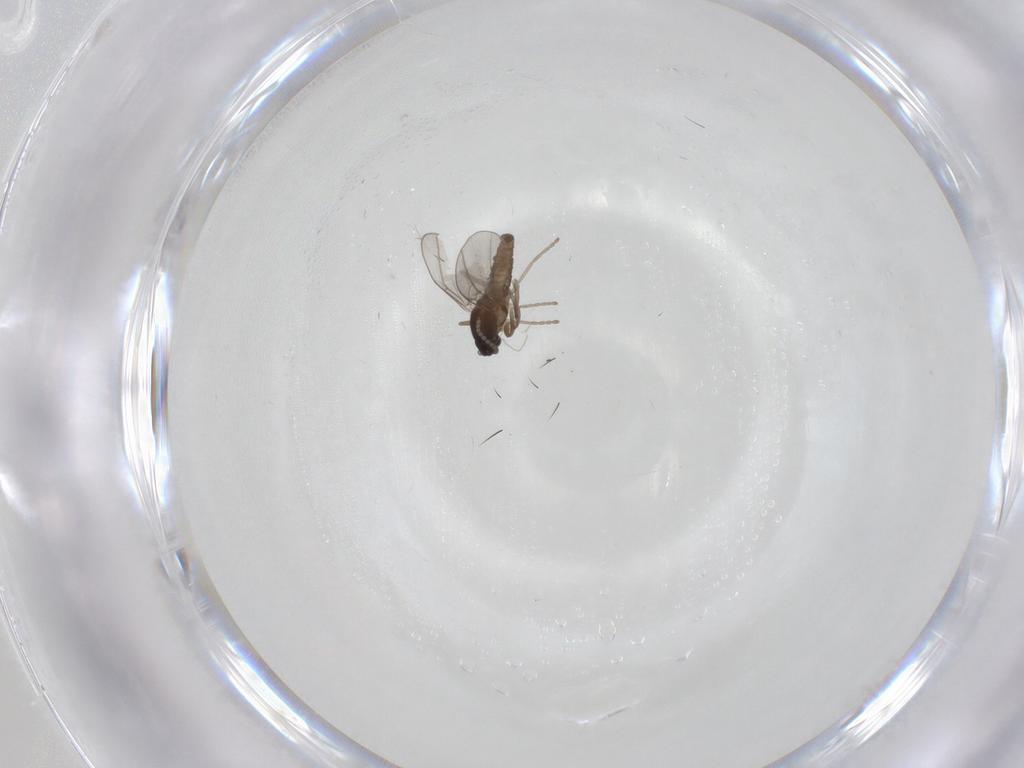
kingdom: Animalia
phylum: Arthropoda
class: Insecta
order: Diptera
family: Cecidomyiidae
